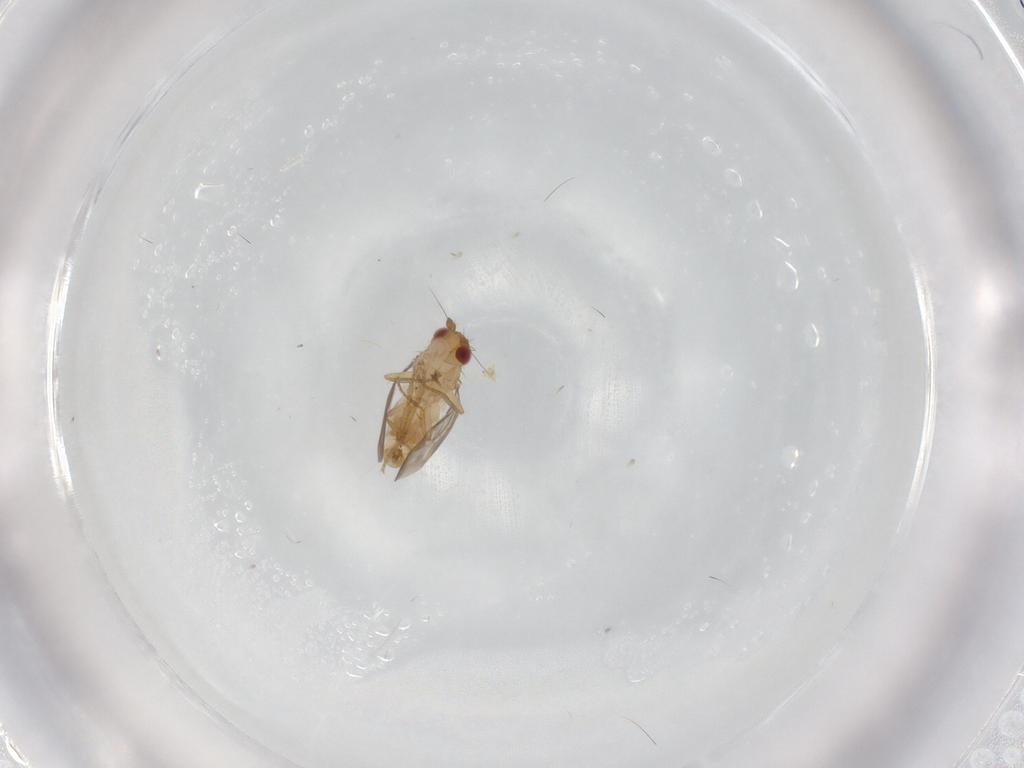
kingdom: Animalia
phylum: Arthropoda
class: Insecta
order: Diptera
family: Sphaeroceridae
